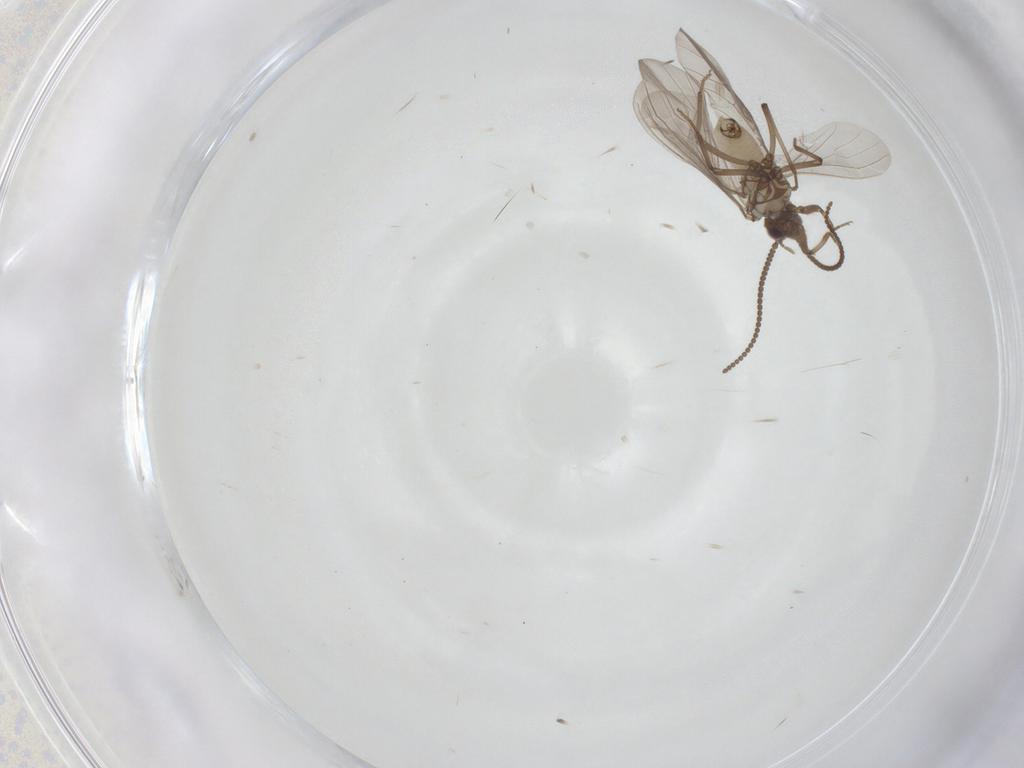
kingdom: Animalia
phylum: Arthropoda
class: Insecta
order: Neuroptera
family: Coniopterygidae
